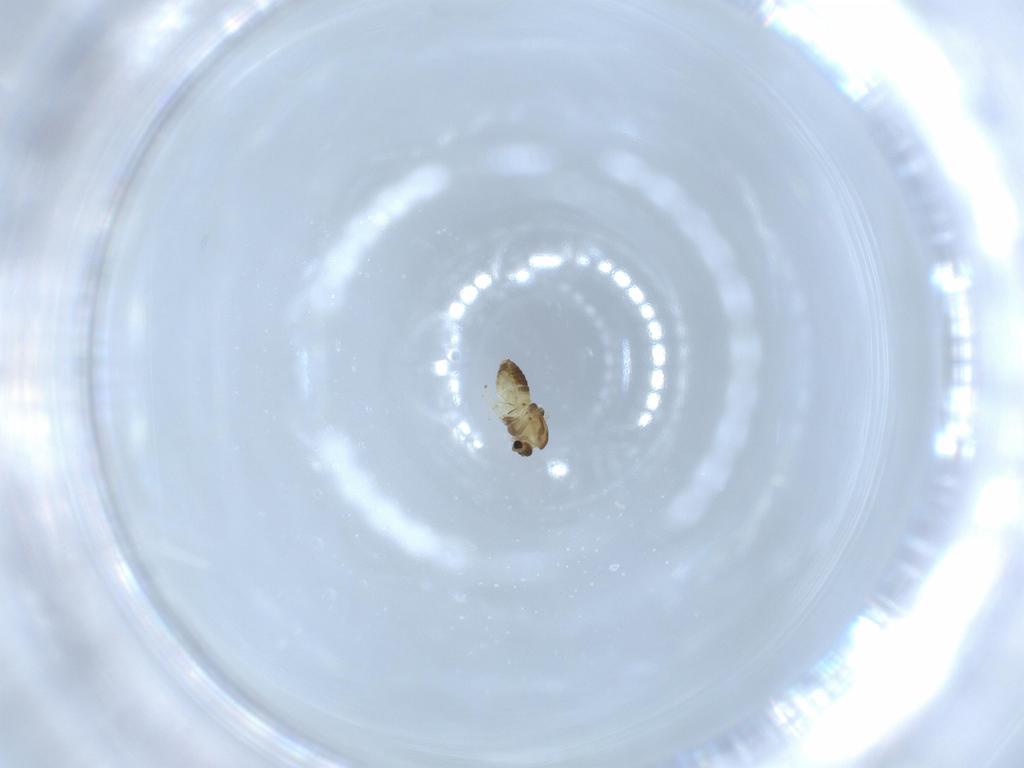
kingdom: Animalia
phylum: Arthropoda
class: Insecta
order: Diptera
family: Chironomidae
